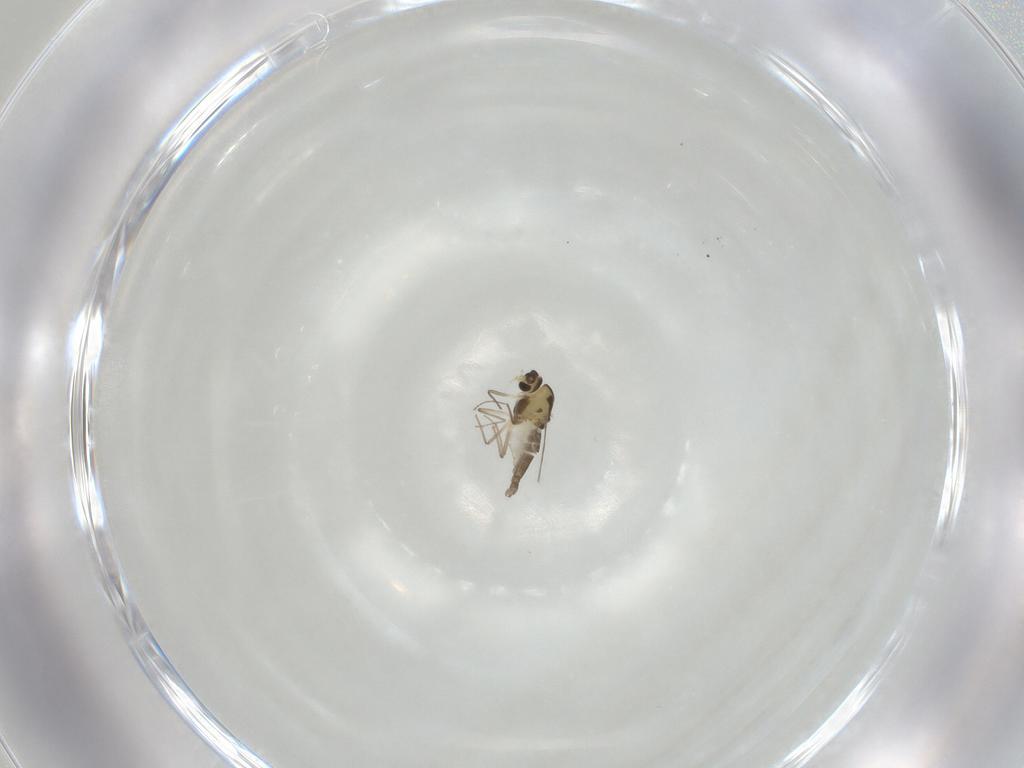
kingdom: Animalia
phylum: Arthropoda
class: Insecta
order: Diptera
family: Chironomidae
